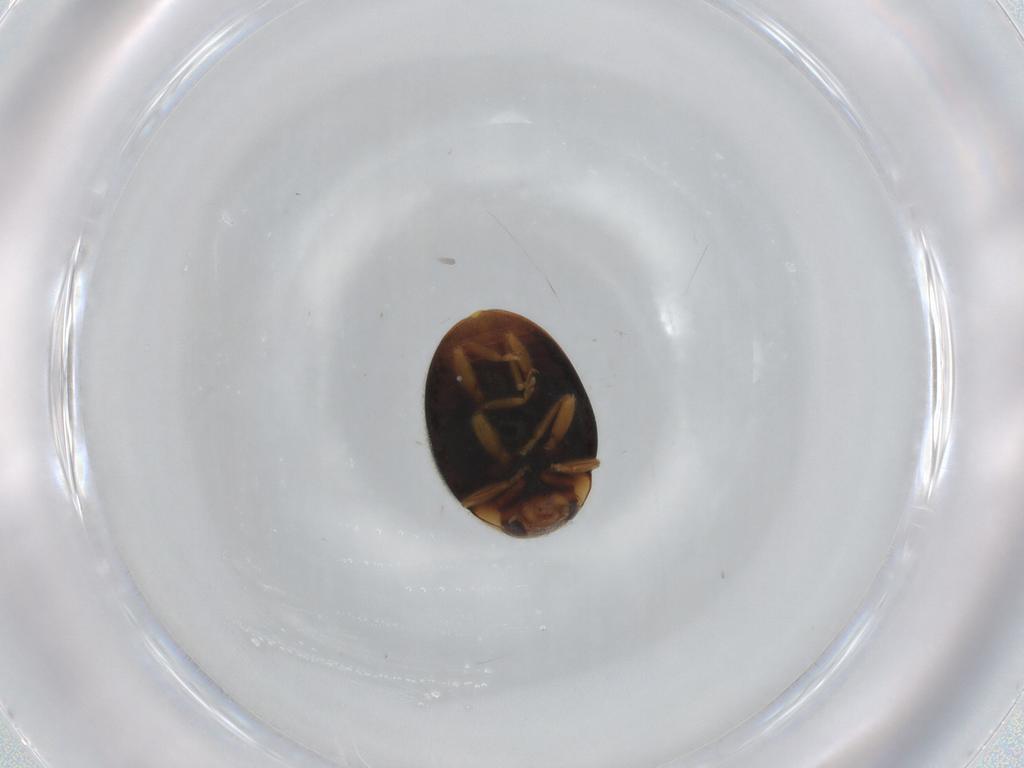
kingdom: Animalia
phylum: Arthropoda
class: Insecta
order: Coleoptera
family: Coccinellidae
